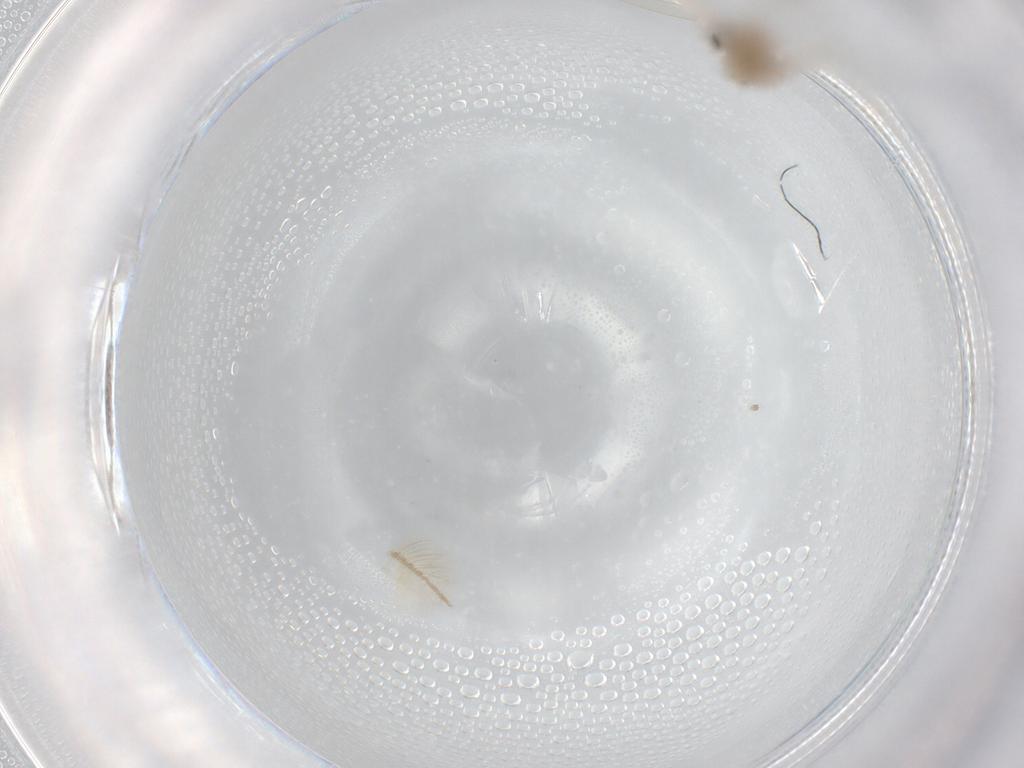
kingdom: Animalia
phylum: Arthropoda
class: Insecta
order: Diptera
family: Cecidomyiidae
